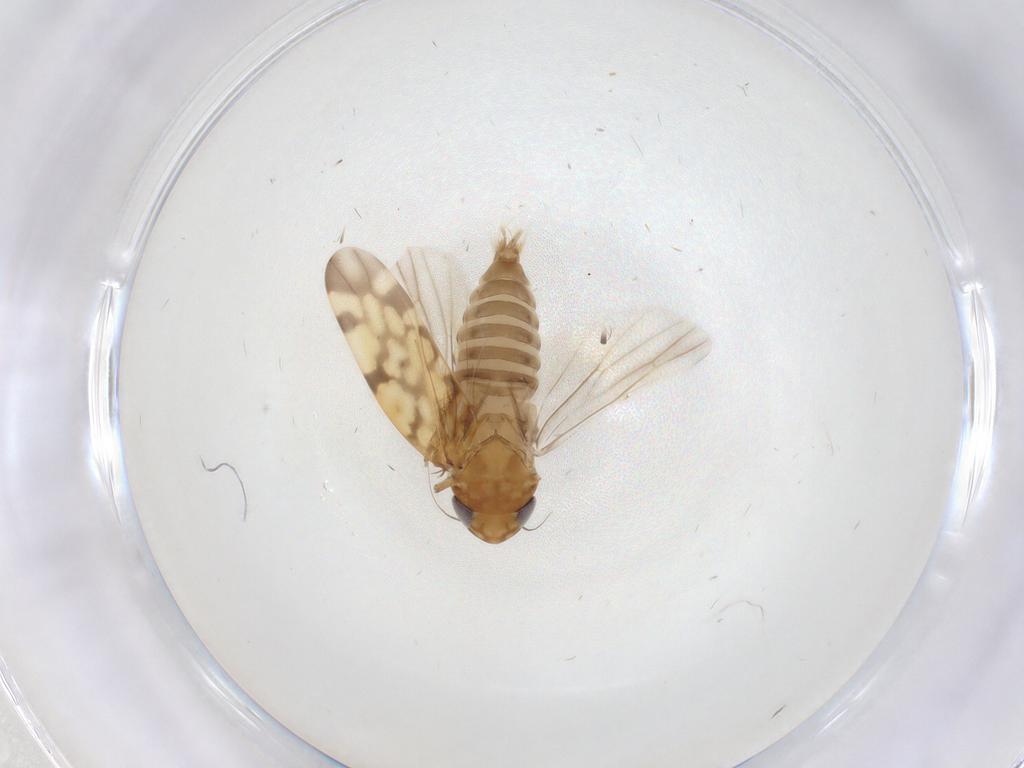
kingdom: Animalia
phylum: Arthropoda
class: Insecta
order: Hemiptera
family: Cicadellidae
